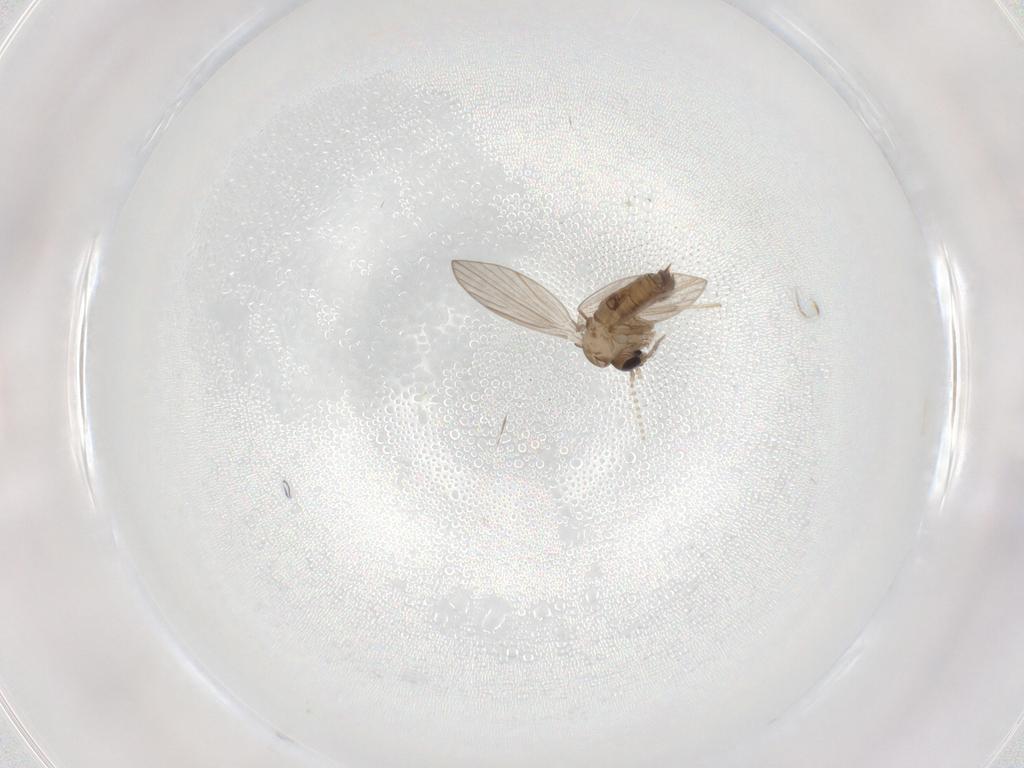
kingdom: Animalia
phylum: Arthropoda
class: Insecta
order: Diptera
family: Psychodidae
